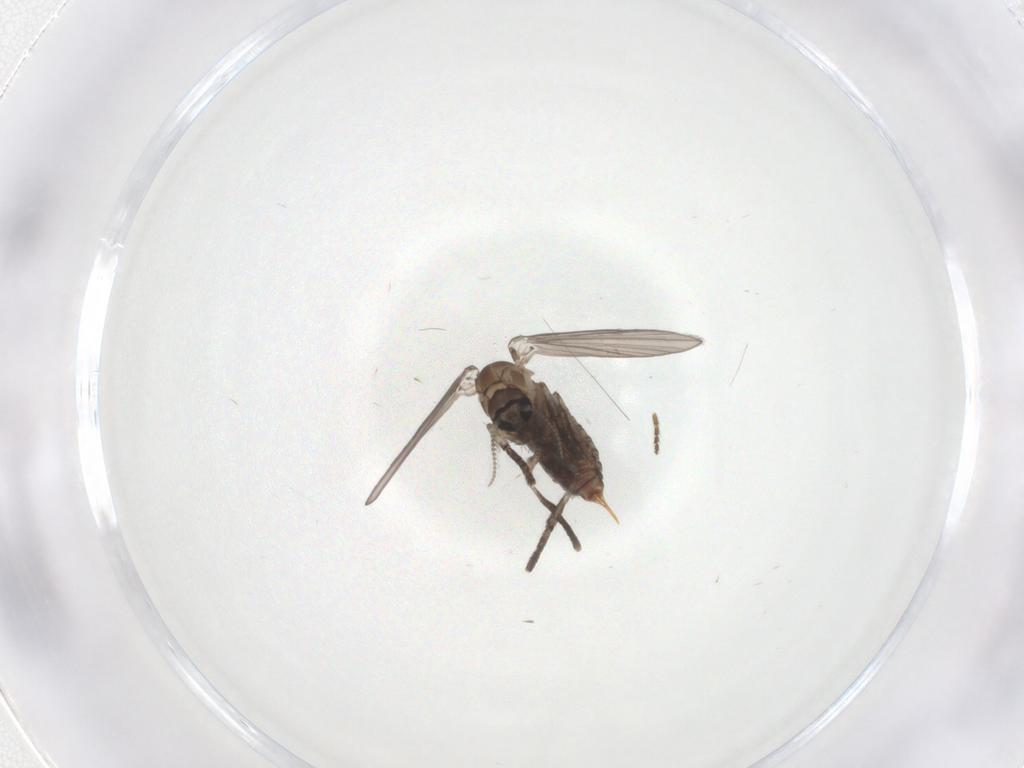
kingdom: Animalia
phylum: Arthropoda
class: Insecta
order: Diptera
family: Psychodidae
